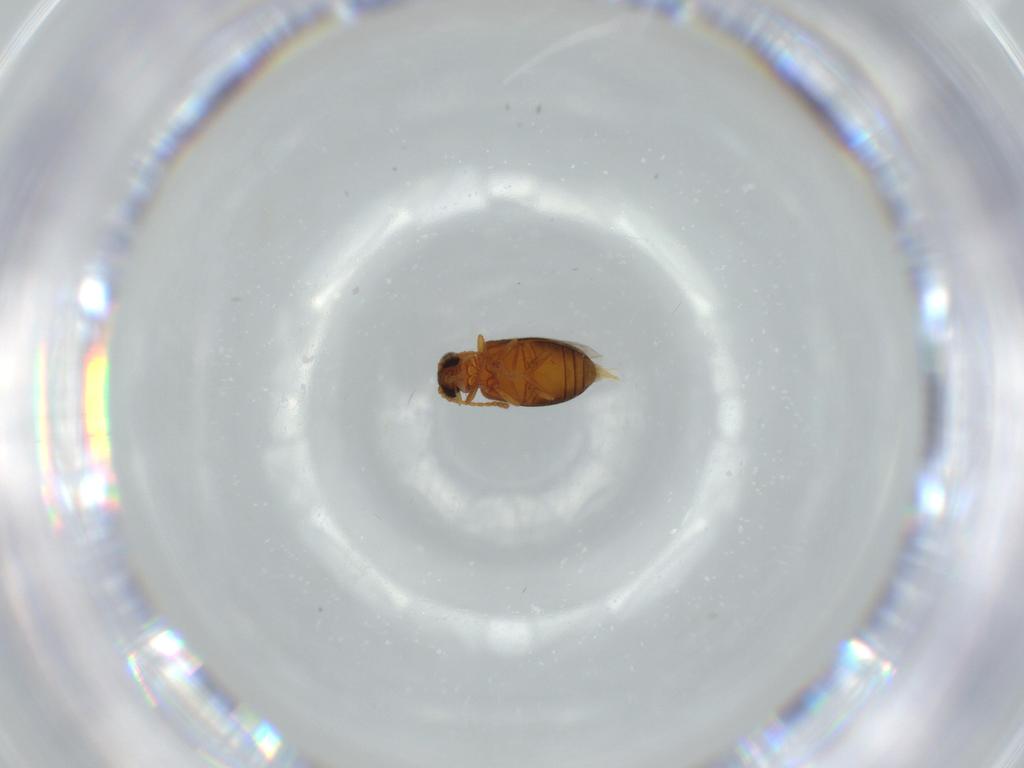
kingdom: Animalia
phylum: Arthropoda
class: Insecta
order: Coleoptera
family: Aderidae
